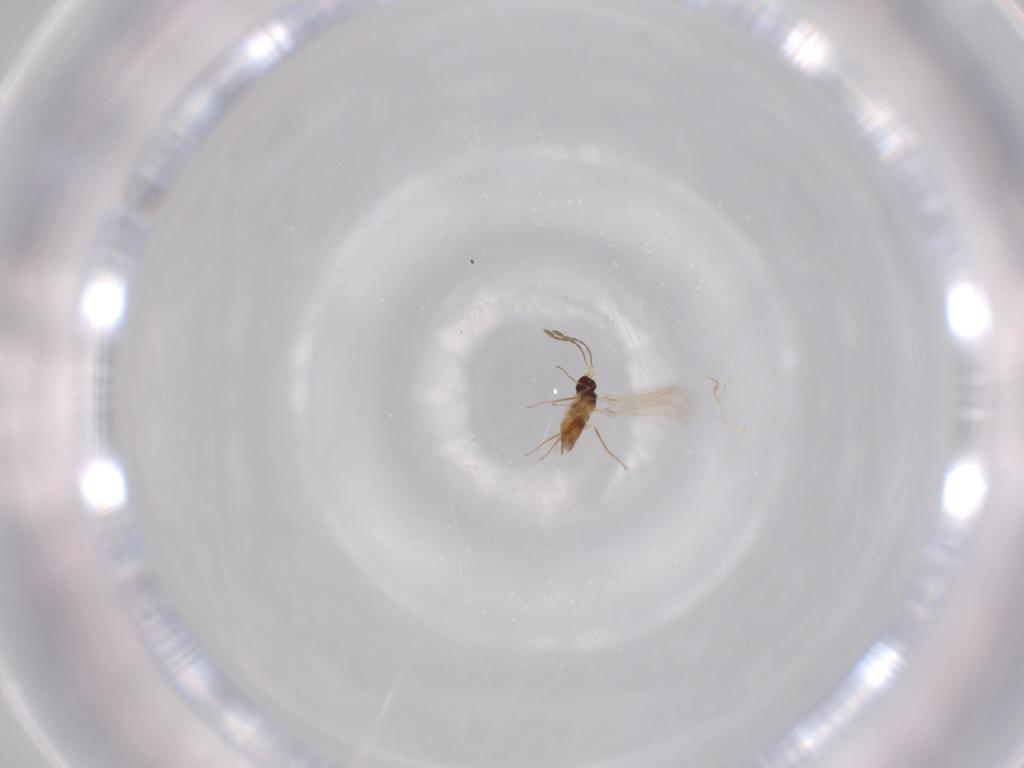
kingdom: Animalia
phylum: Arthropoda
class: Insecta
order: Hymenoptera
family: Mymaridae
